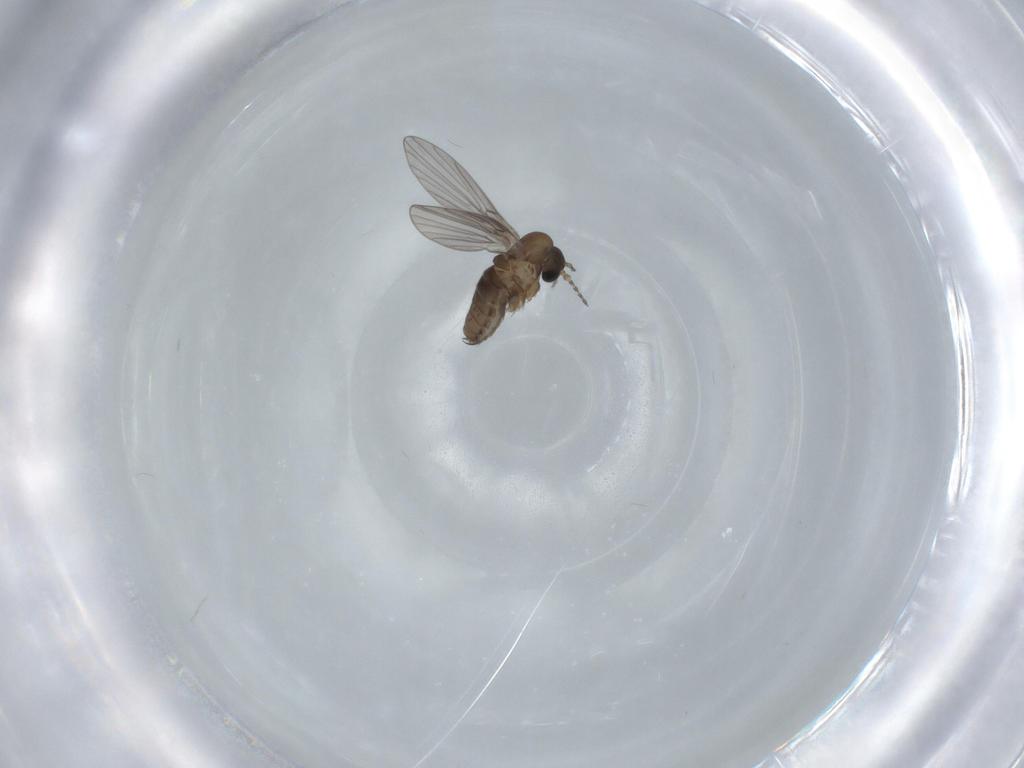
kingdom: Animalia
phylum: Arthropoda
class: Insecta
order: Diptera
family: Psychodidae
